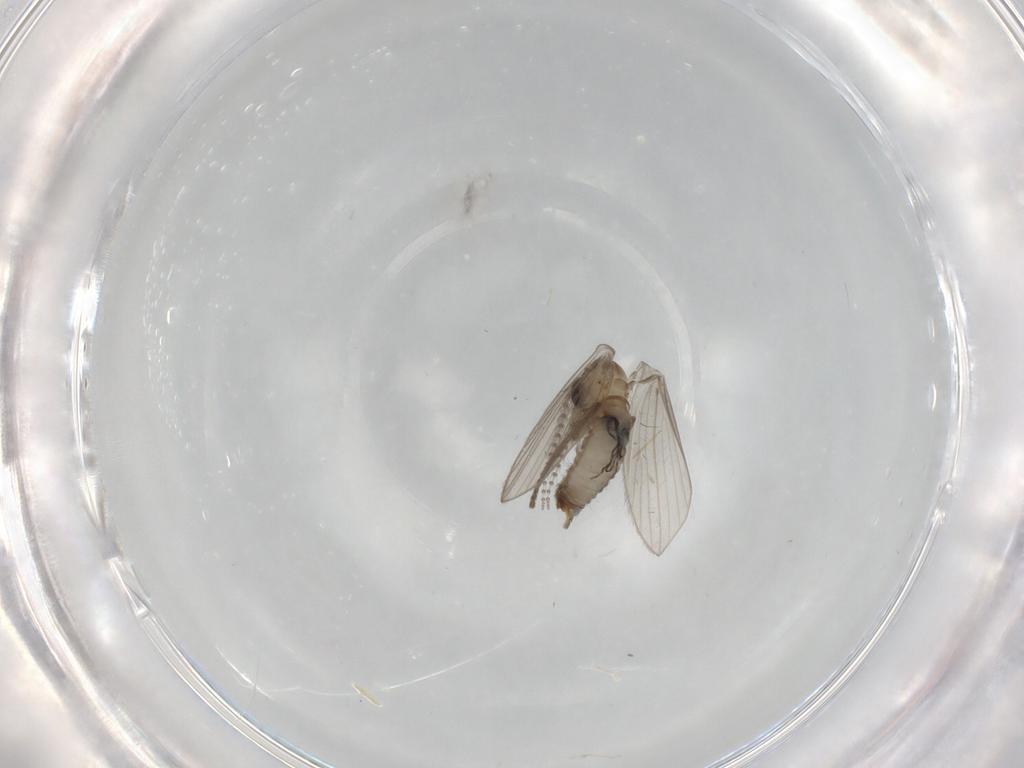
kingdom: Animalia
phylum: Arthropoda
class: Insecta
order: Diptera
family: Psychodidae
